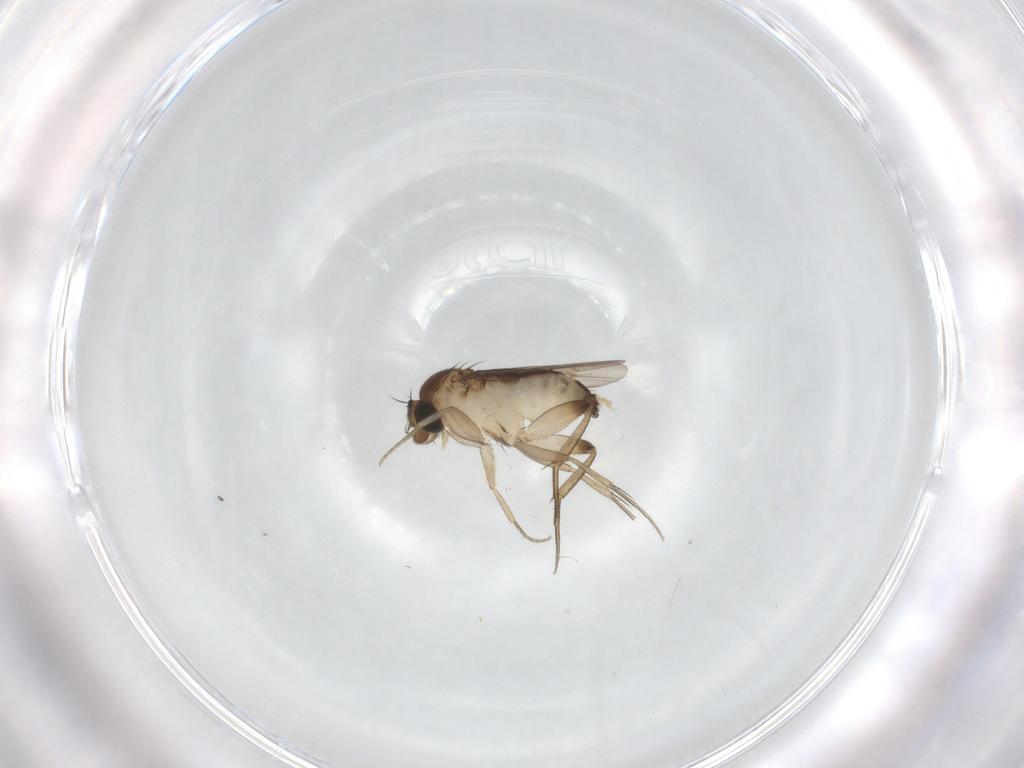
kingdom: Animalia
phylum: Arthropoda
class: Insecta
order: Diptera
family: Phoridae
